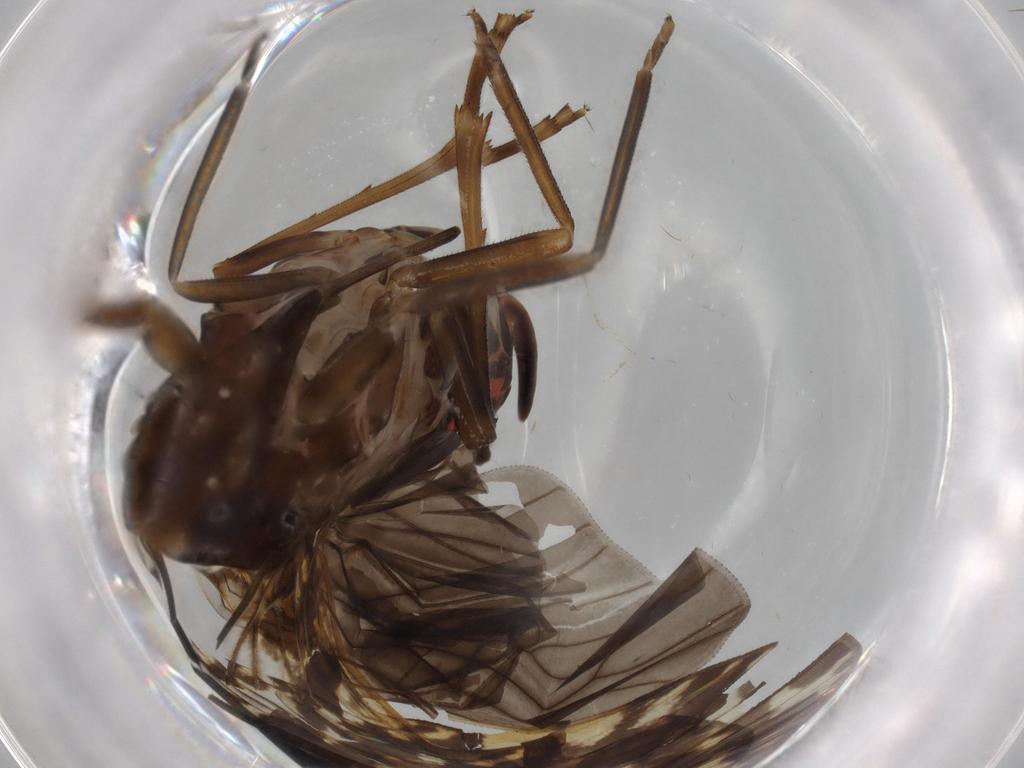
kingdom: Animalia
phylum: Arthropoda
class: Insecta
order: Hemiptera
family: Cixiidae
